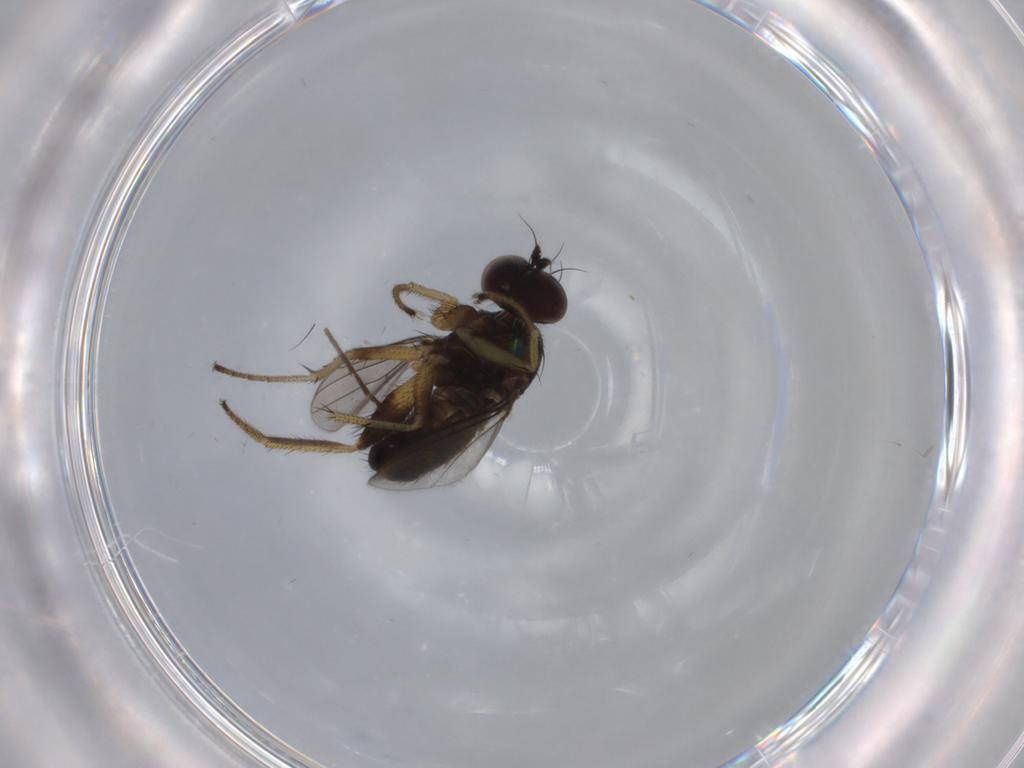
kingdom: Animalia
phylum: Arthropoda
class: Insecta
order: Diptera
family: Dolichopodidae
